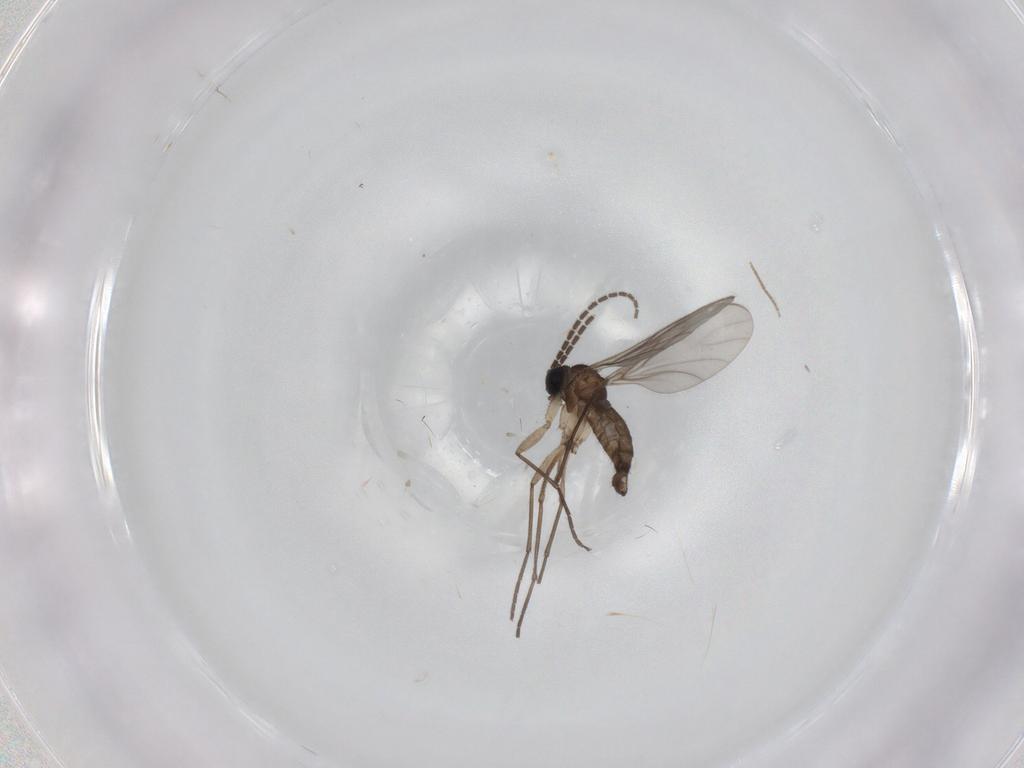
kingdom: Animalia
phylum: Arthropoda
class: Insecta
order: Diptera
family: Sciaridae
